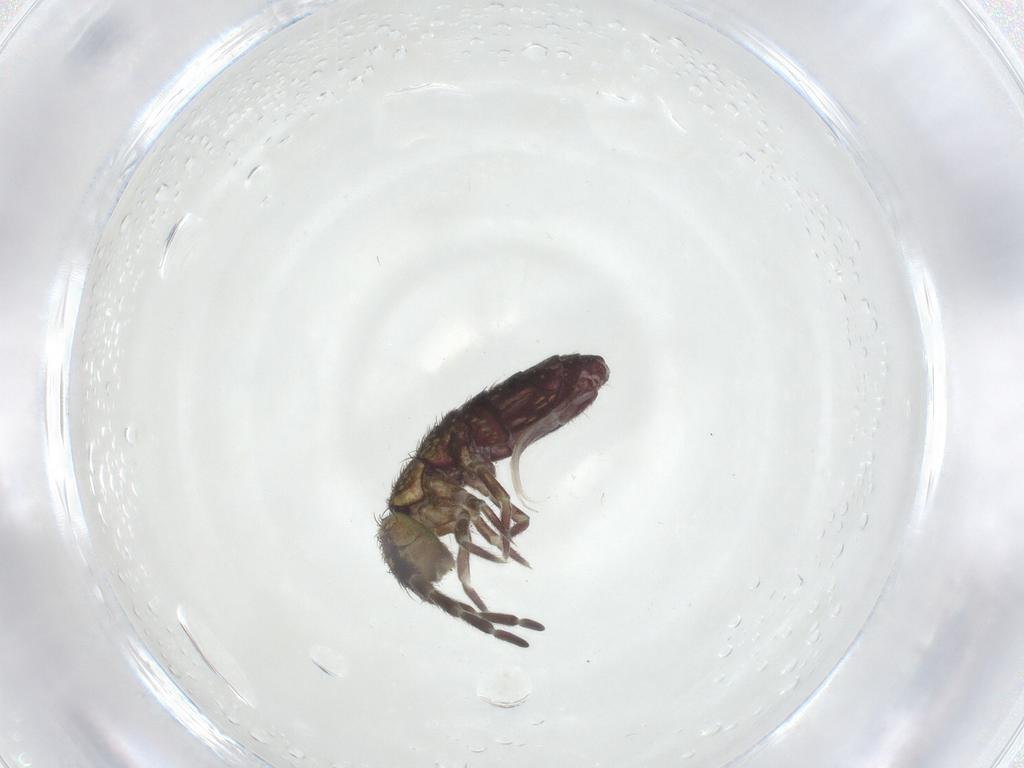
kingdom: Animalia
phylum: Arthropoda
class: Collembola
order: Entomobryomorpha
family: Isotomidae
